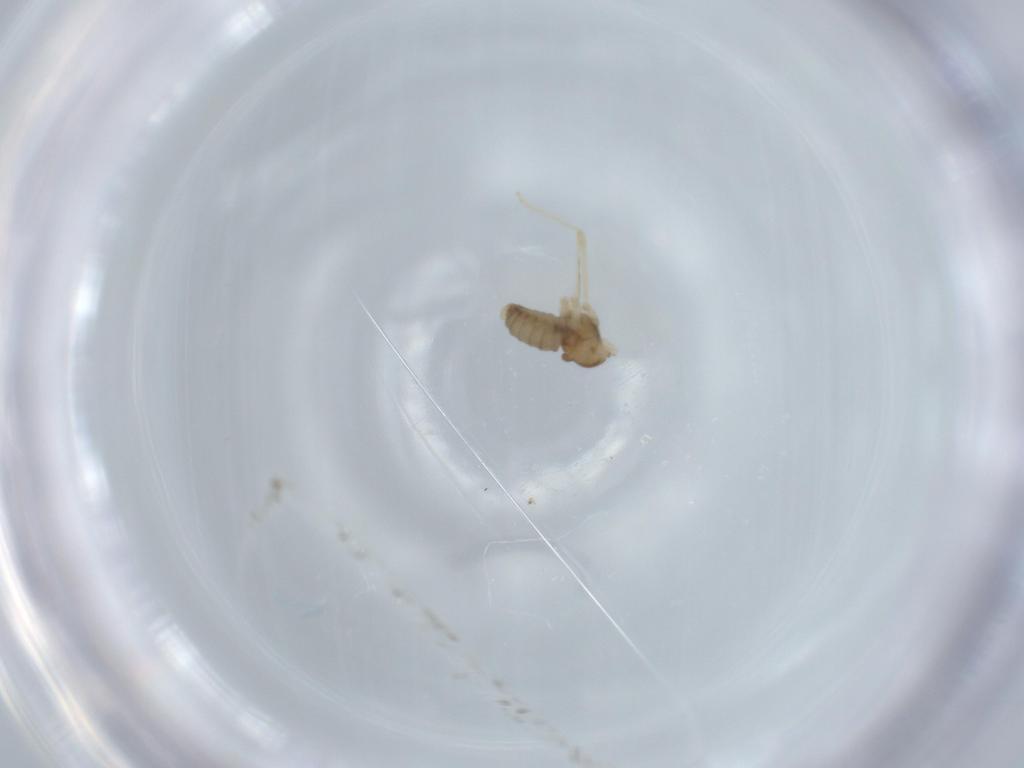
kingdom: Animalia
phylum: Arthropoda
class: Insecta
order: Diptera
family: Cecidomyiidae
